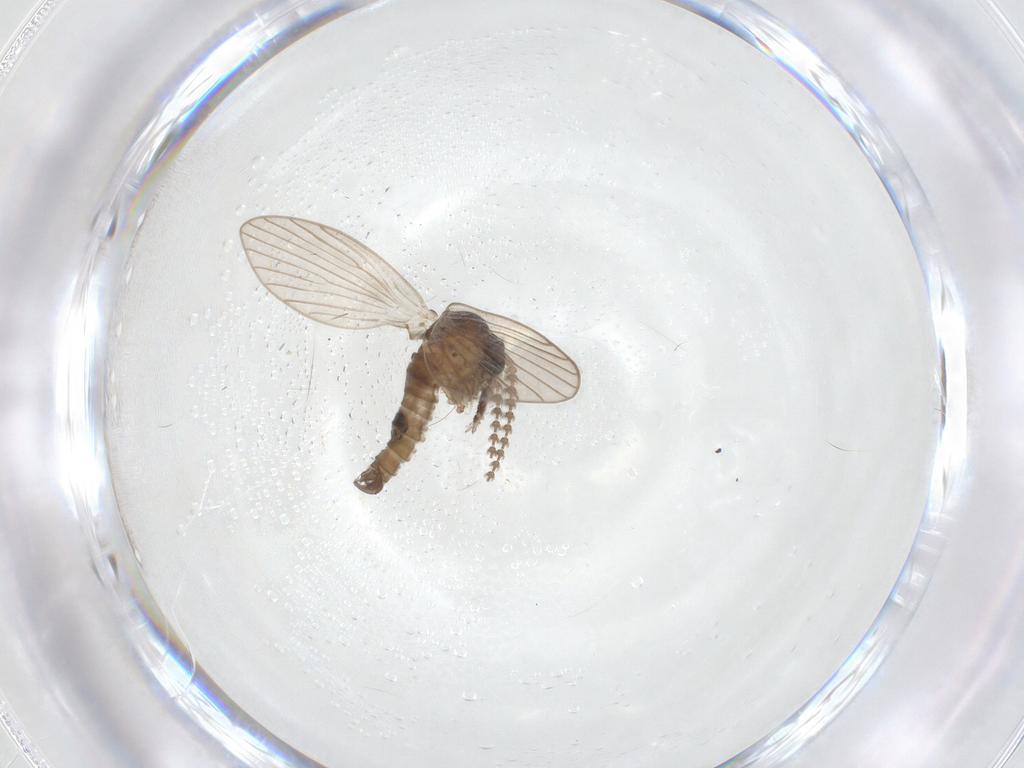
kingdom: Animalia
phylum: Arthropoda
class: Insecta
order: Diptera
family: Psychodidae
